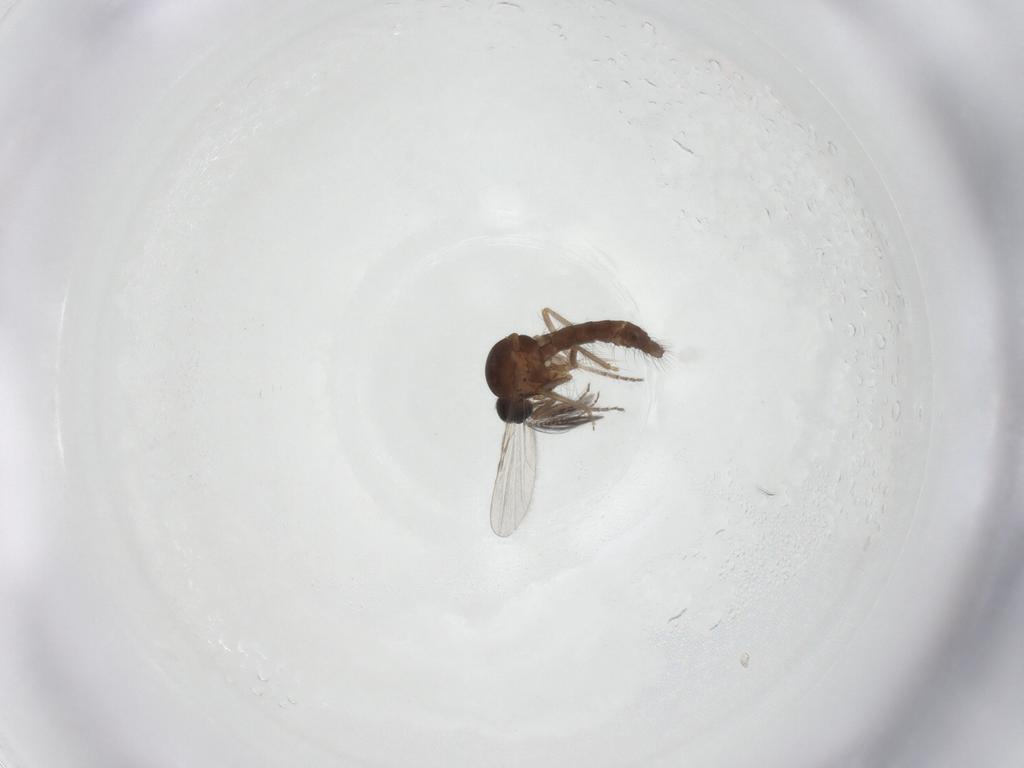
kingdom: Animalia
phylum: Arthropoda
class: Insecta
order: Diptera
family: Ceratopogonidae
